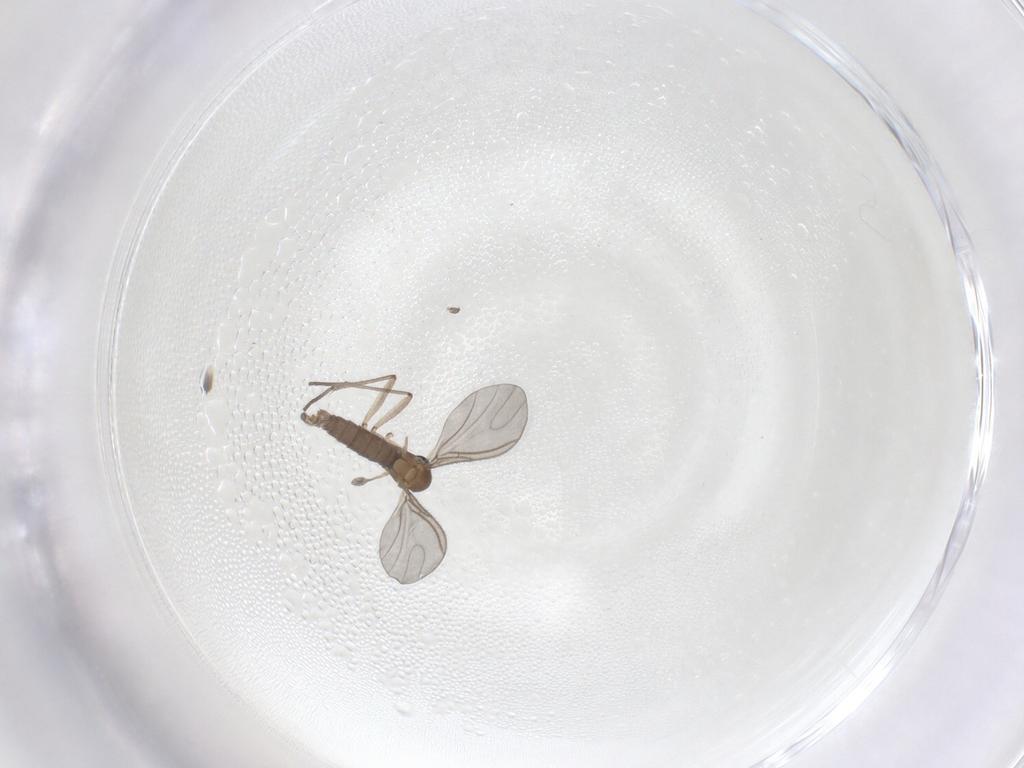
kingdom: Animalia
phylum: Arthropoda
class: Insecta
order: Diptera
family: Sciaridae
